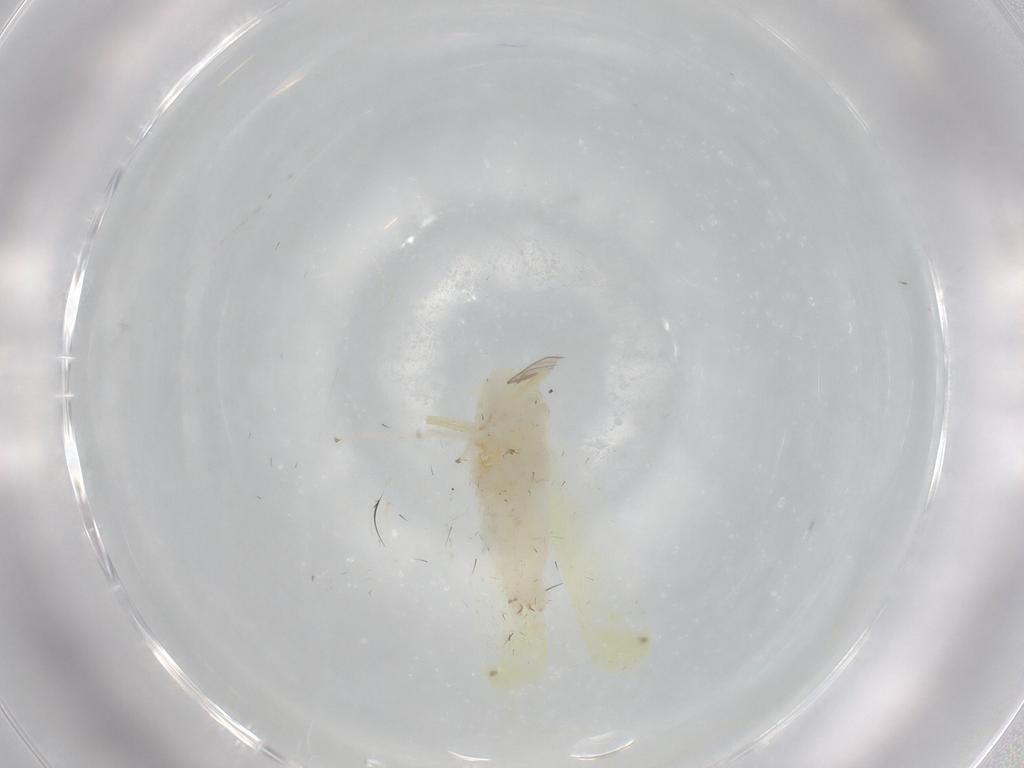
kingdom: Animalia
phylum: Arthropoda
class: Insecta
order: Hemiptera
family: Cicadellidae
